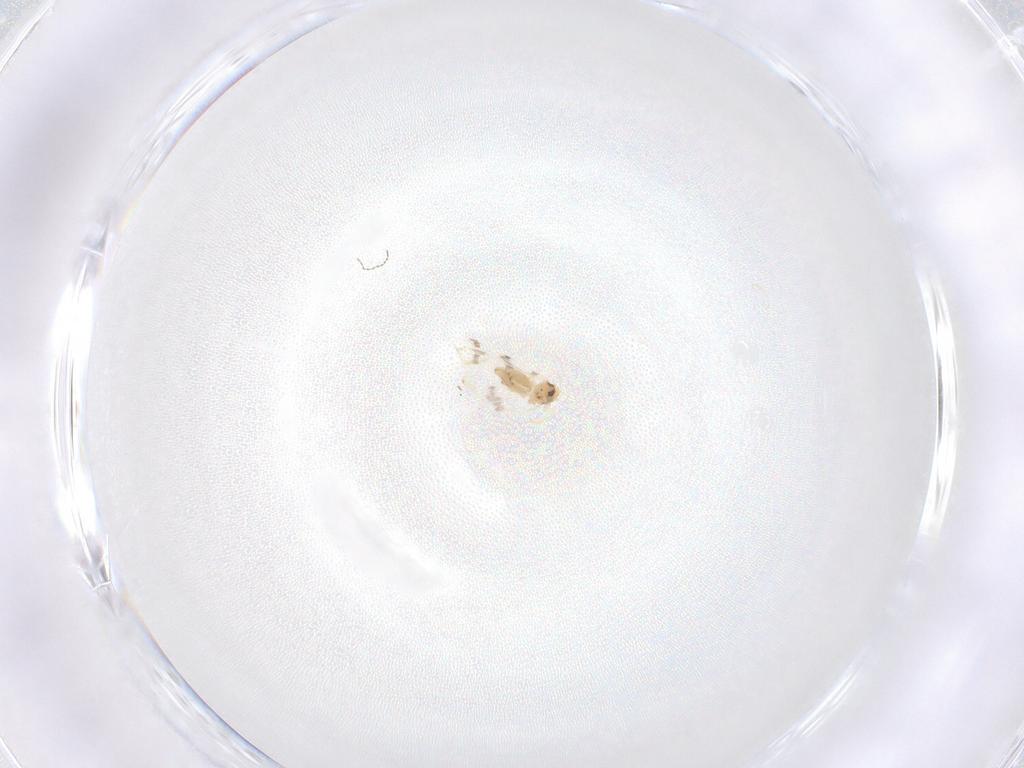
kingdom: Animalia
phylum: Arthropoda
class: Insecta
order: Diptera
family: Cecidomyiidae
